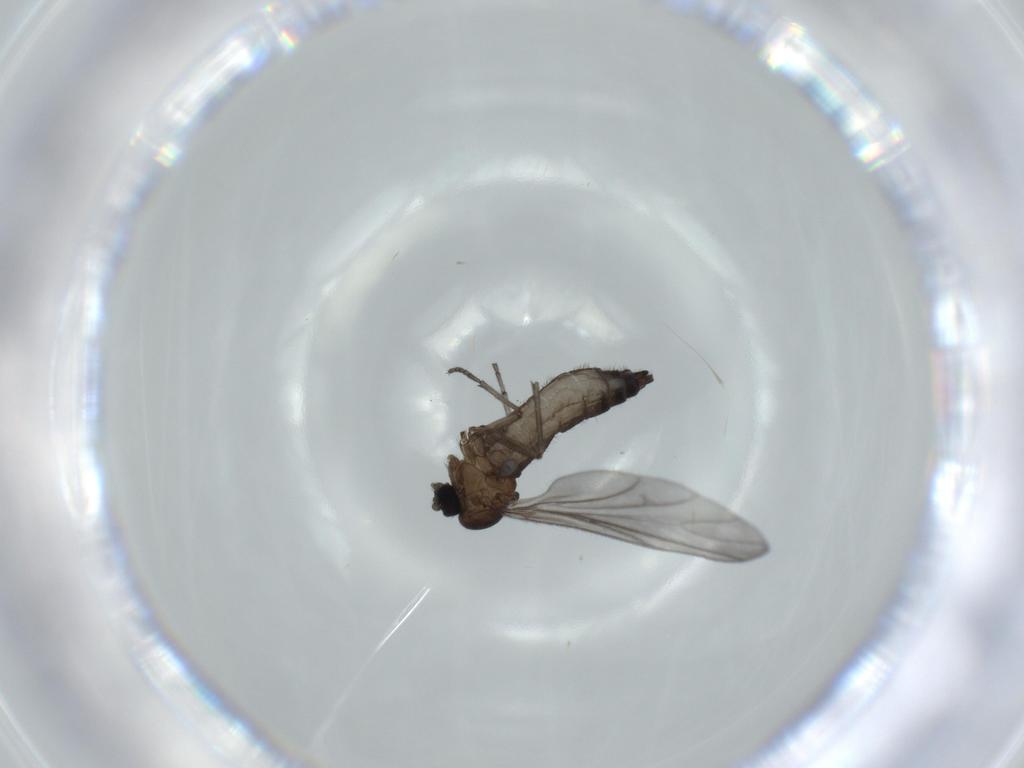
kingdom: Animalia
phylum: Arthropoda
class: Insecta
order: Diptera
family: Sciaridae
